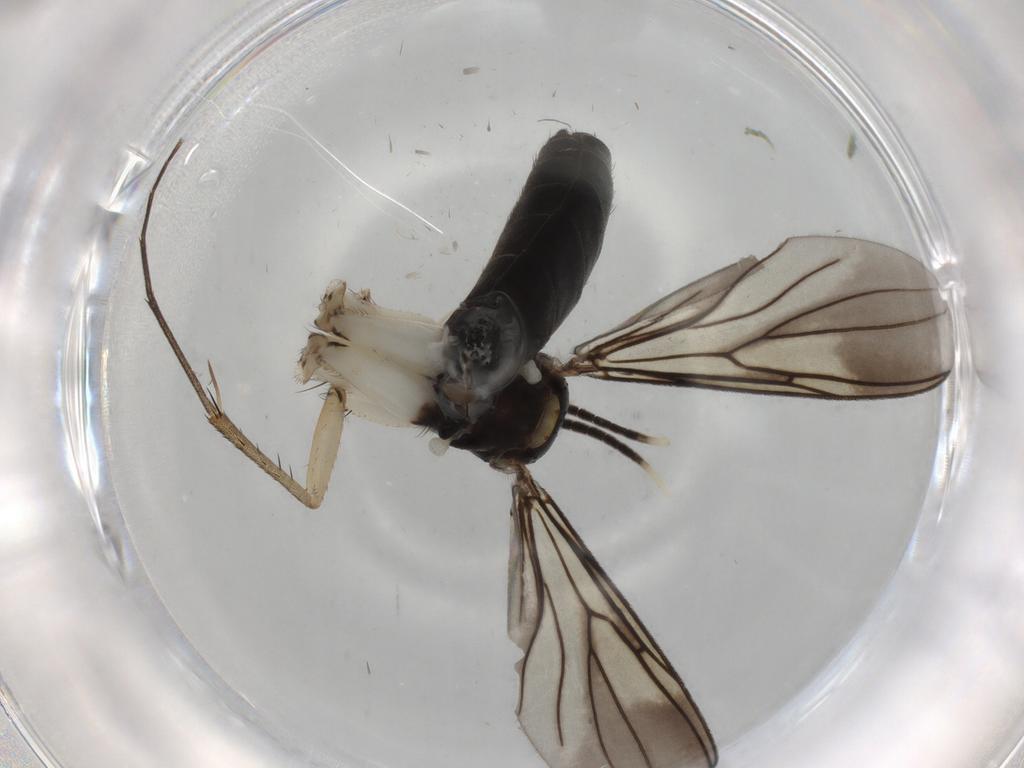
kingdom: Animalia
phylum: Arthropoda
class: Insecta
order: Diptera
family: Mycetophilidae
